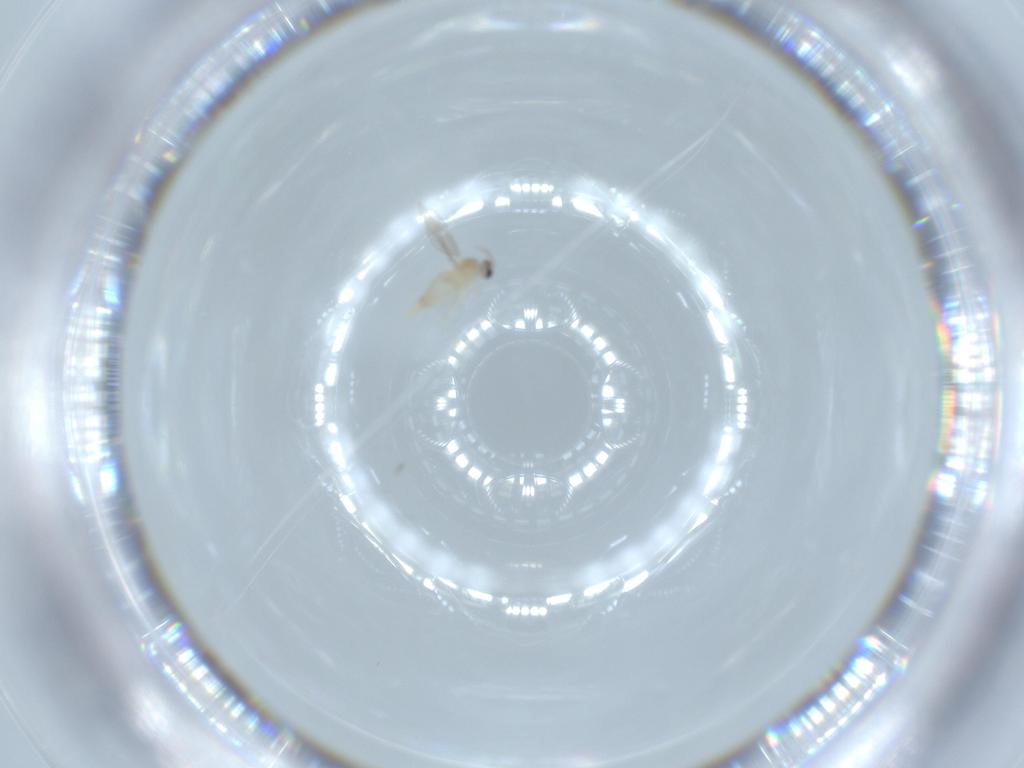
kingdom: Animalia
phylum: Arthropoda
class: Insecta
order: Diptera
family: Cecidomyiidae
